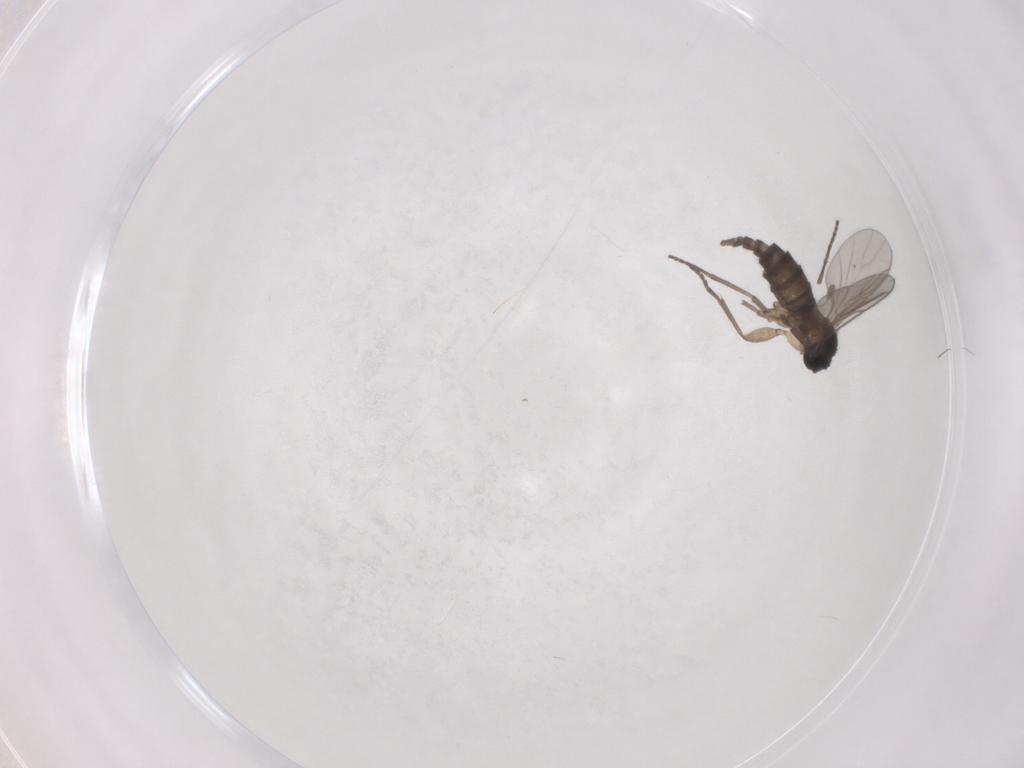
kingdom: Animalia
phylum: Arthropoda
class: Insecta
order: Diptera
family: Sciaridae
